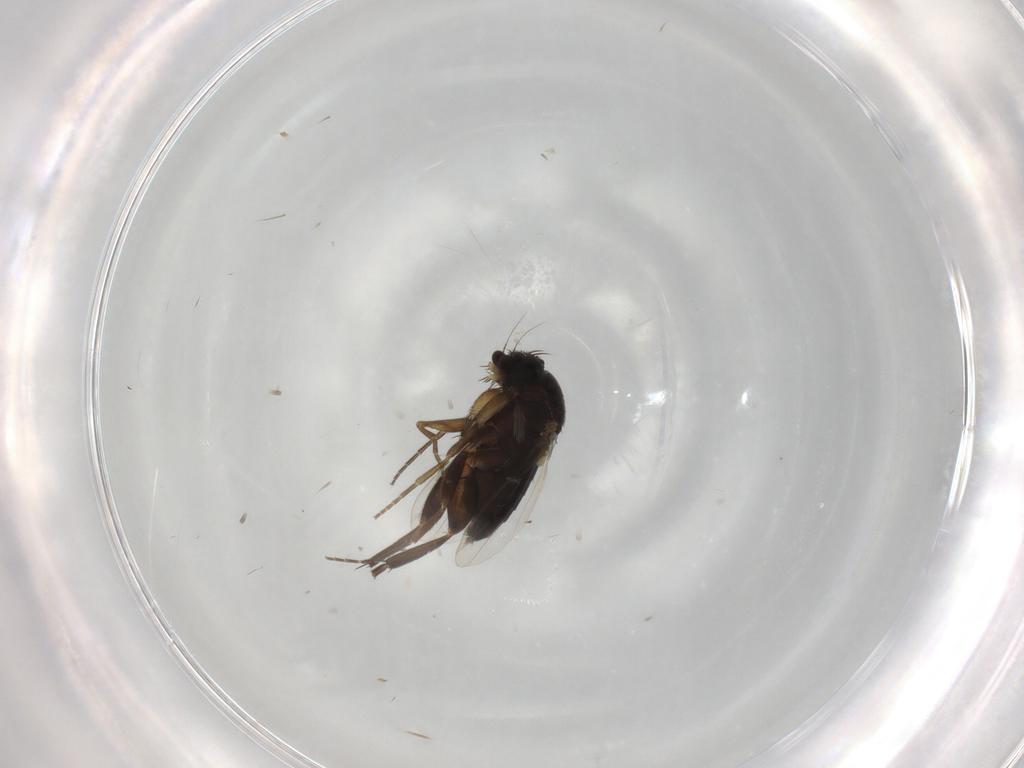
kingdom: Animalia
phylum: Arthropoda
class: Insecta
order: Diptera
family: Phoridae
